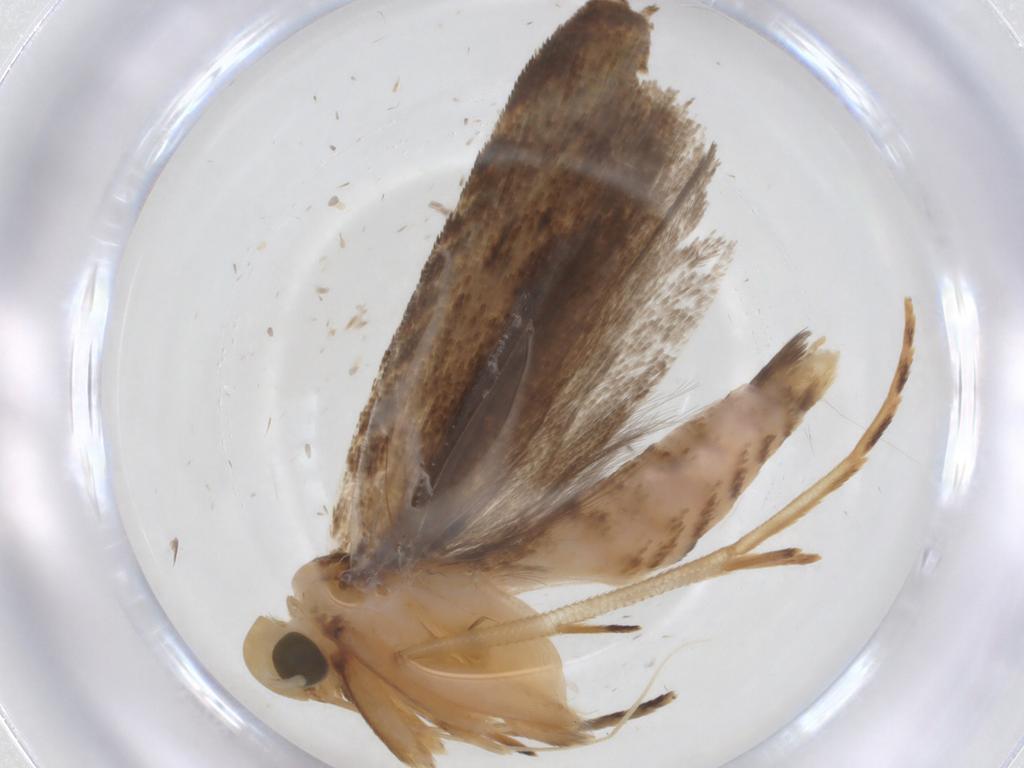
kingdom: Animalia
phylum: Arthropoda
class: Insecta
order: Lepidoptera
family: Gelechiidae
